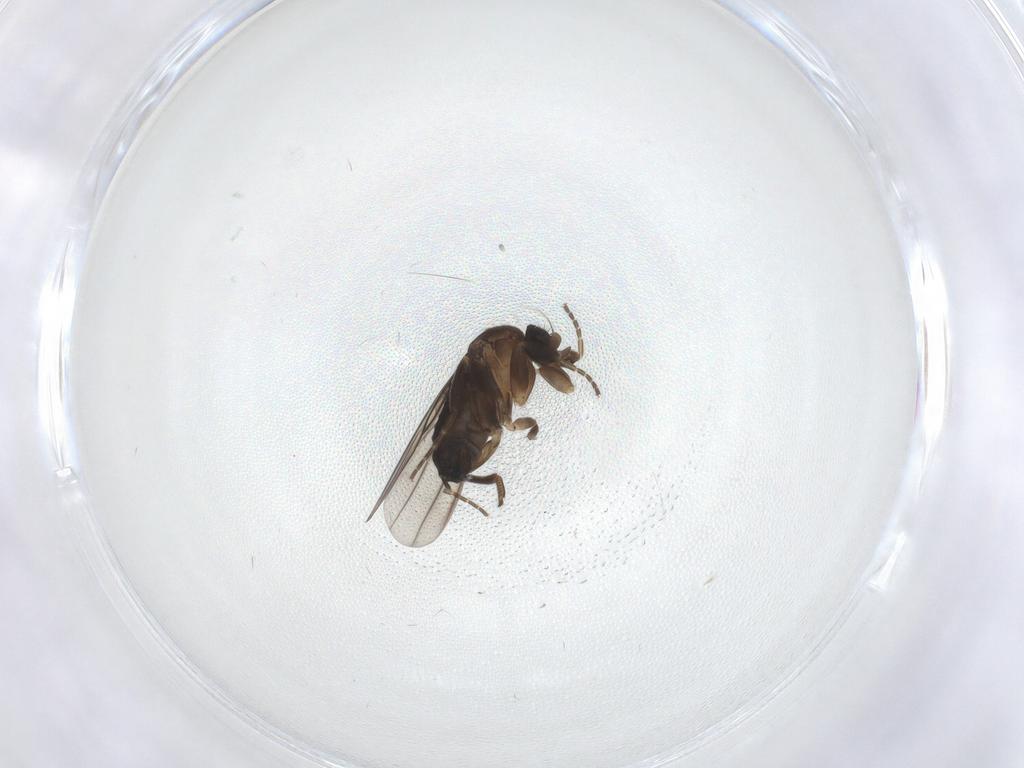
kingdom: Animalia
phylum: Arthropoda
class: Insecta
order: Diptera
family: Chironomidae
